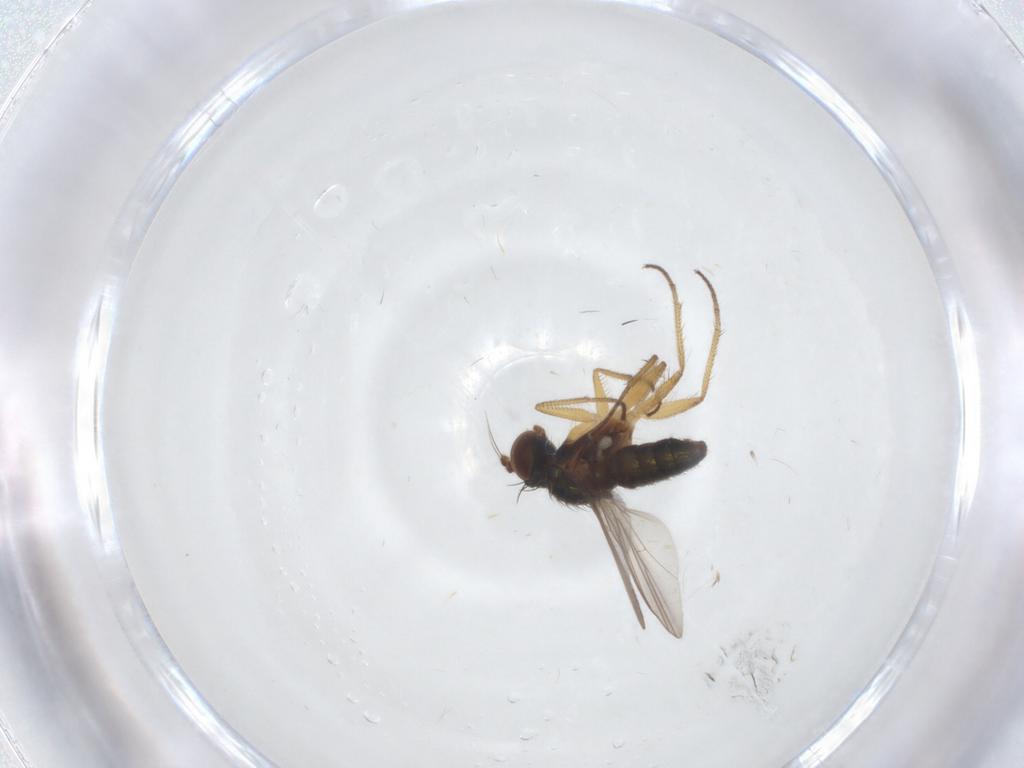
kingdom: Animalia
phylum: Arthropoda
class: Insecta
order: Diptera
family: Dolichopodidae
